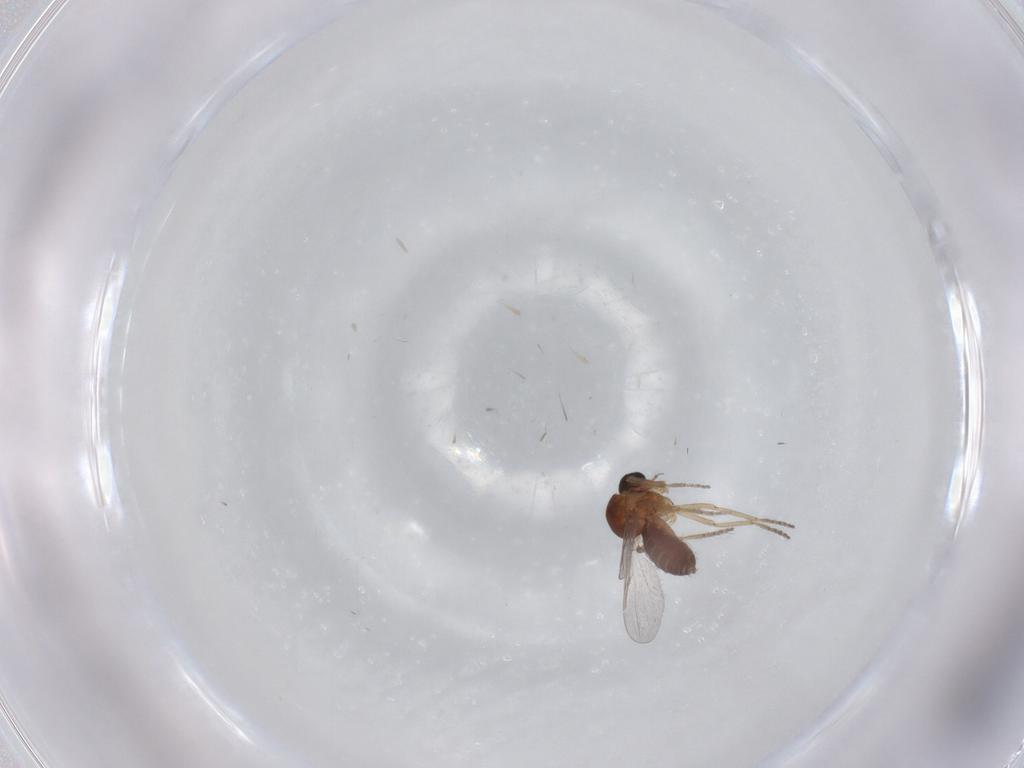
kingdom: Animalia
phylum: Arthropoda
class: Insecta
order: Diptera
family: Ceratopogonidae
